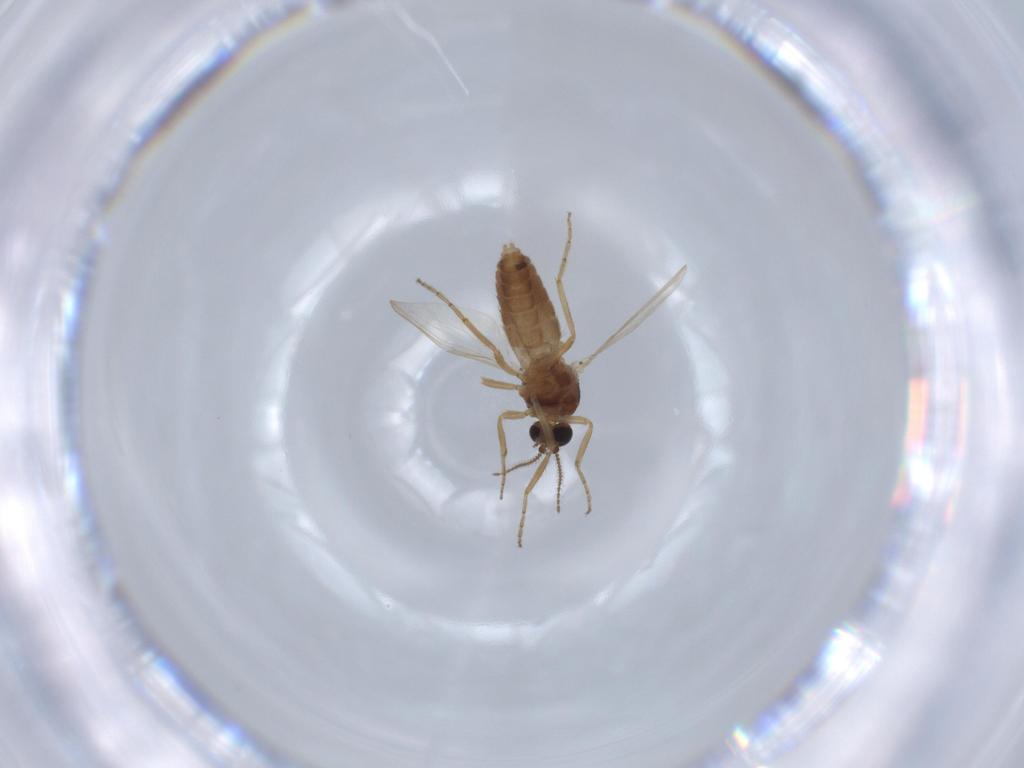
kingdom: Animalia
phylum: Arthropoda
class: Insecta
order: Diptera
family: Ceratopogonidae
